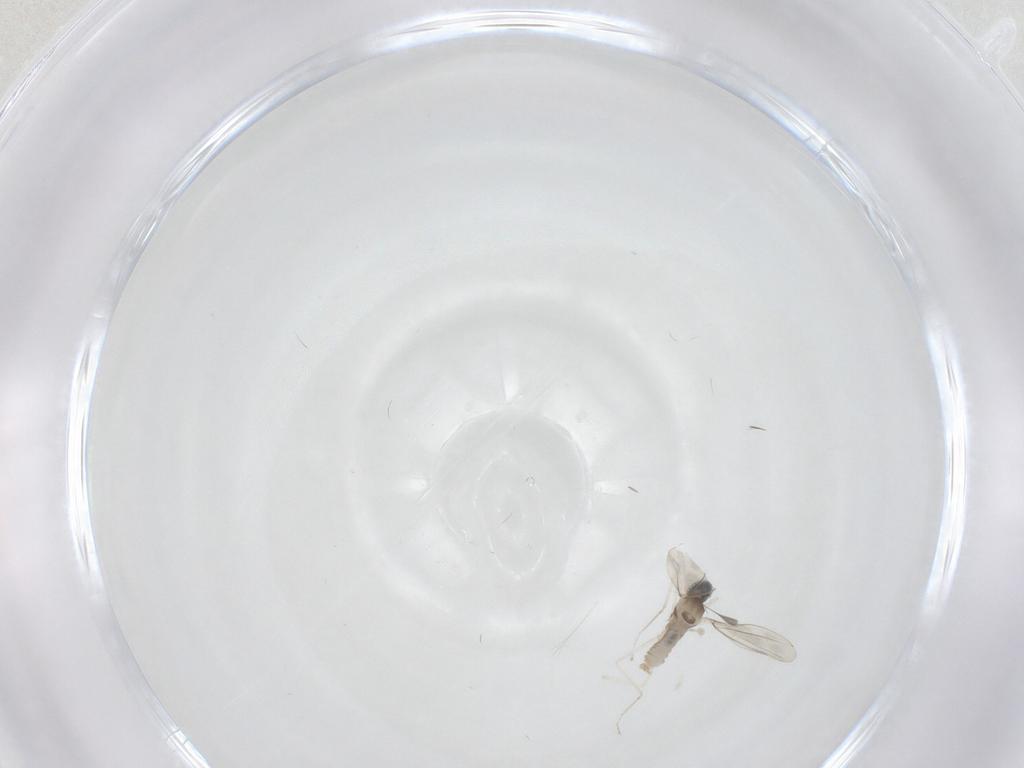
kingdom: Animalia
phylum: Arthropoda
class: Insecta
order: Diptera
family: Cecidomyiidae
